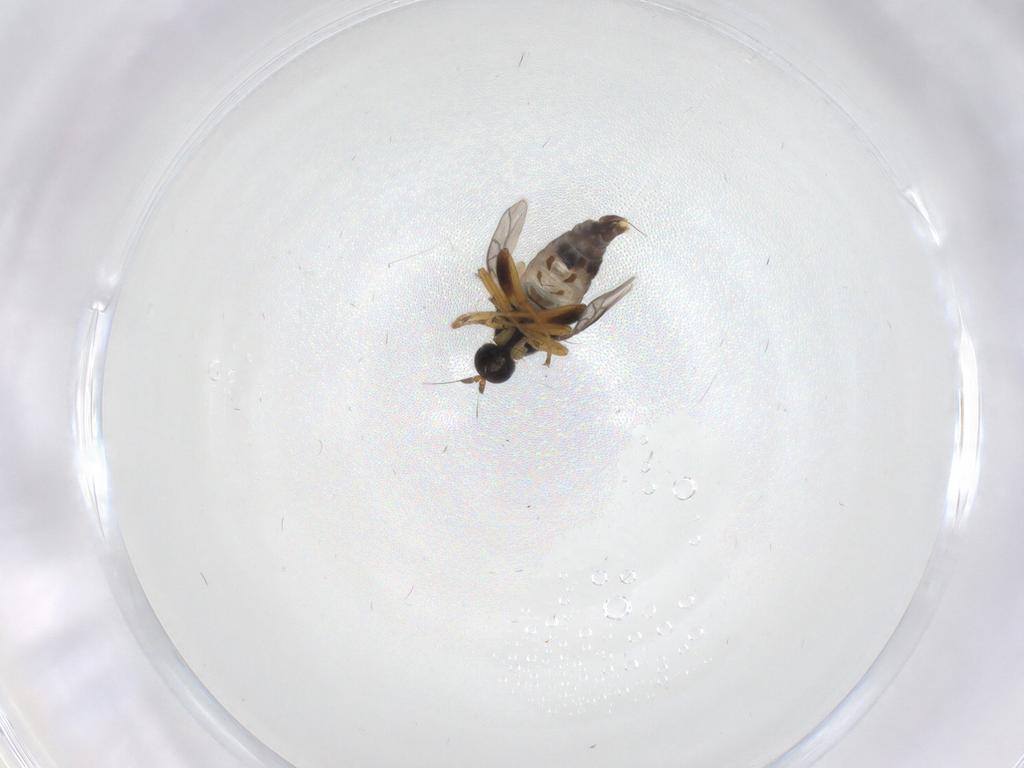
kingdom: Animalia
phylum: Arthropoda
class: Insecta
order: Diptera
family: Hybotidae
